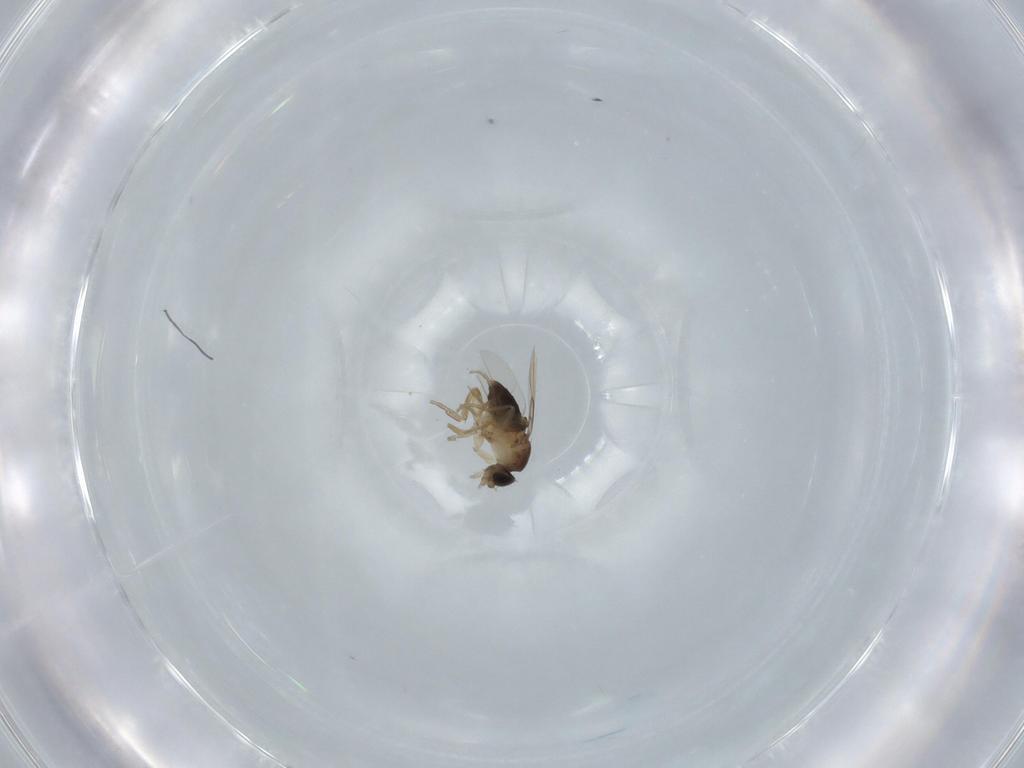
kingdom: Animalia
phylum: Arthropoda
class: Insecta
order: Diptera
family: Phoridae
